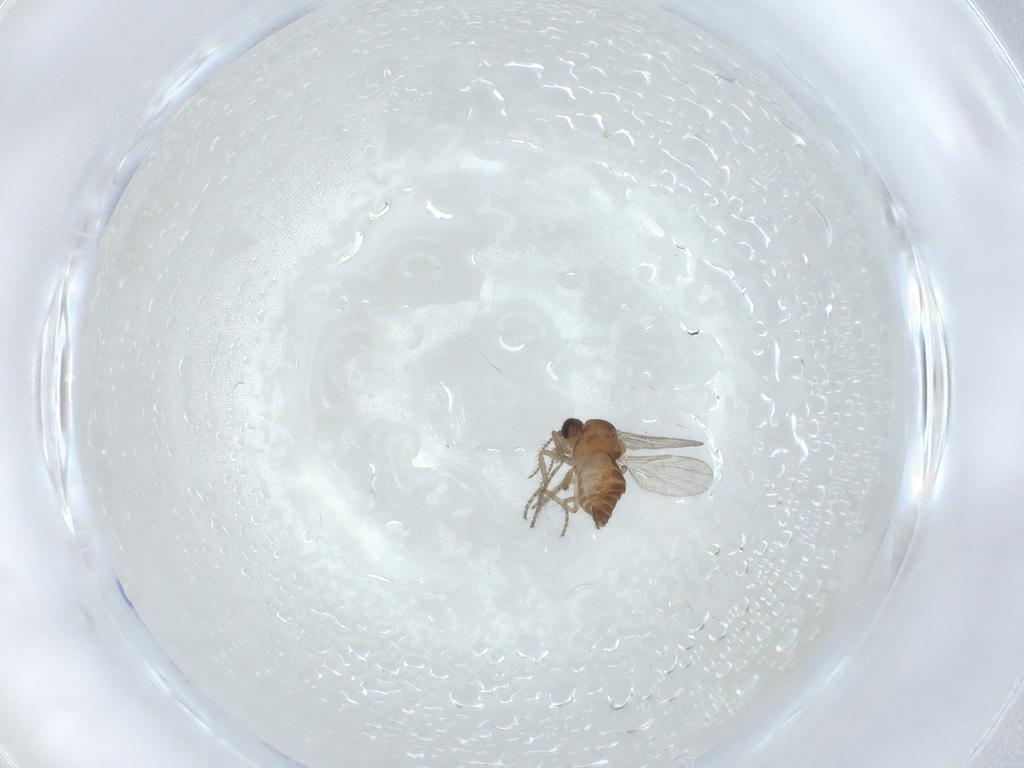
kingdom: Animalia
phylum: Arthropoda
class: Insecta
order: Diptera
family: Ceratopogonidae
